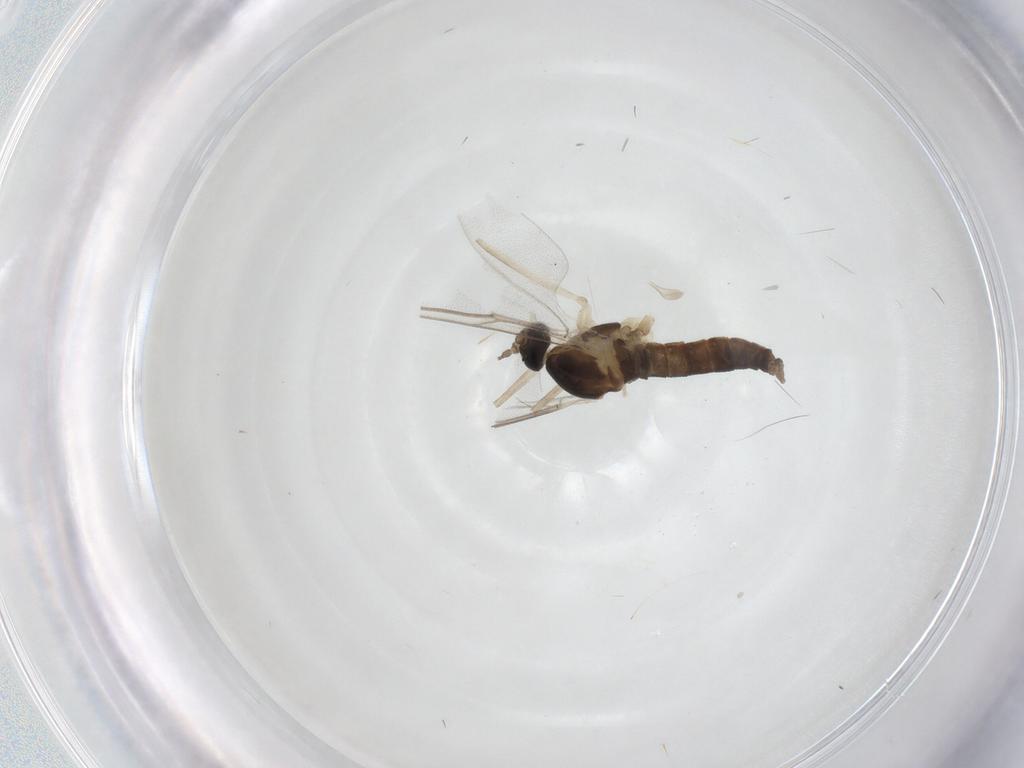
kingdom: Animalia
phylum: Arthropoda
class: Insecta
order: Diptera
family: Cecidomyiidae
